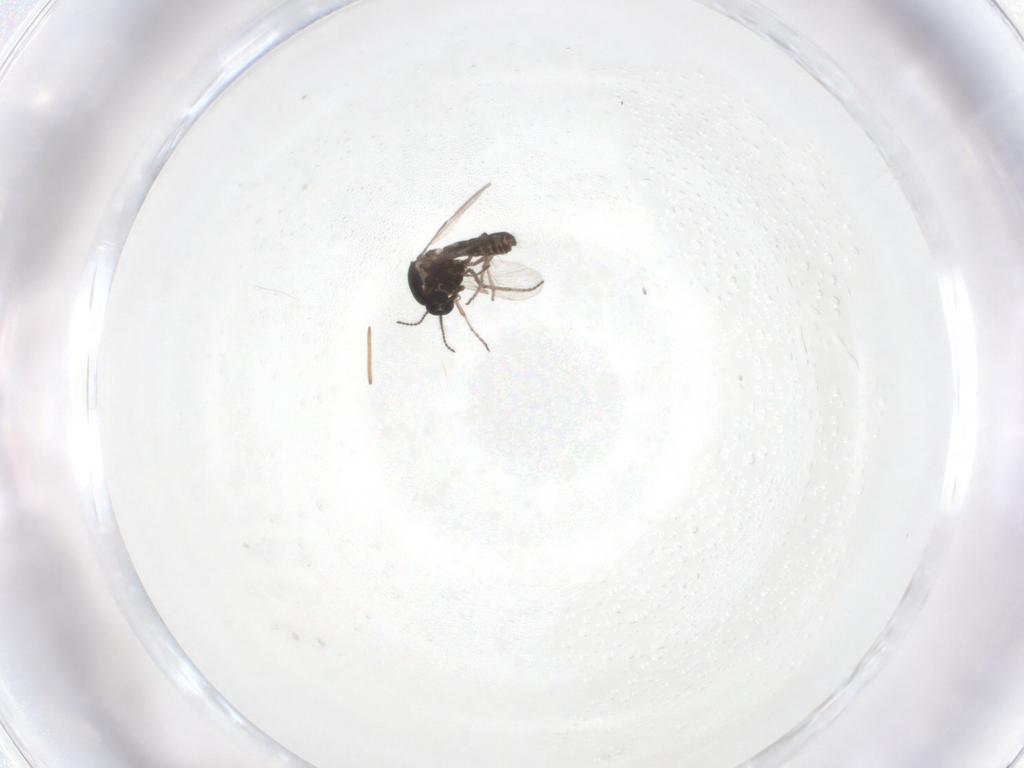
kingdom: Animalia
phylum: Arthropoda
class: Insecta
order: Diptera
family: Ceratopogonidae
